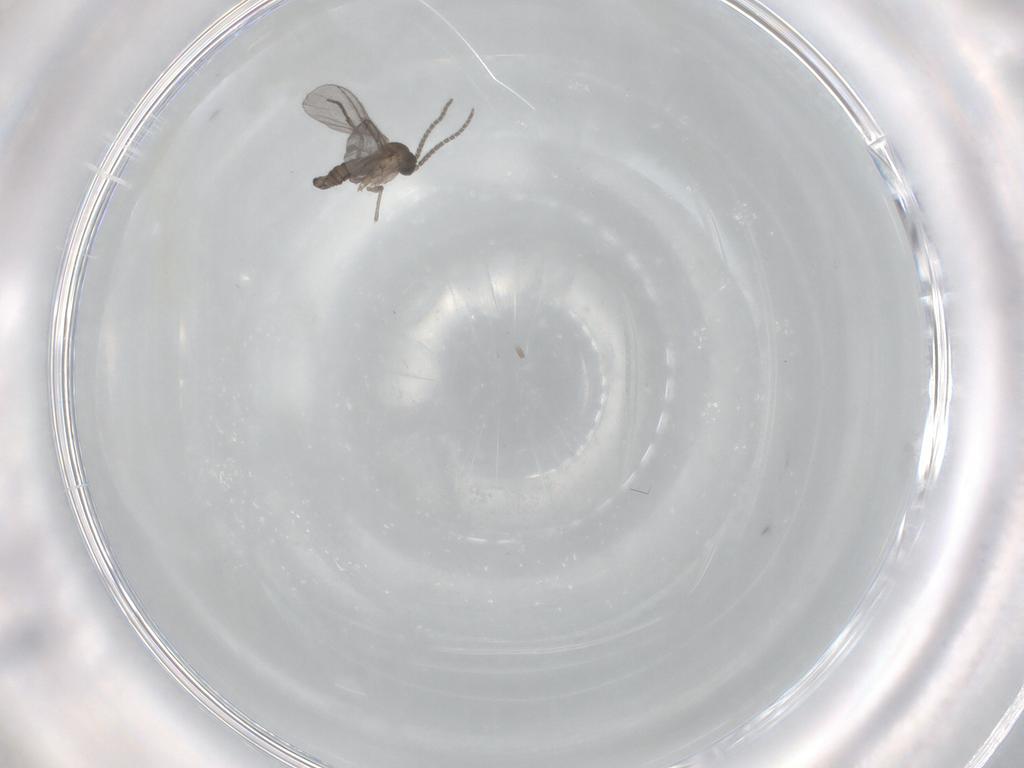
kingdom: Animalia
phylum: Arthropoda
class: Insecta
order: Diptera
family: Sciaridae
